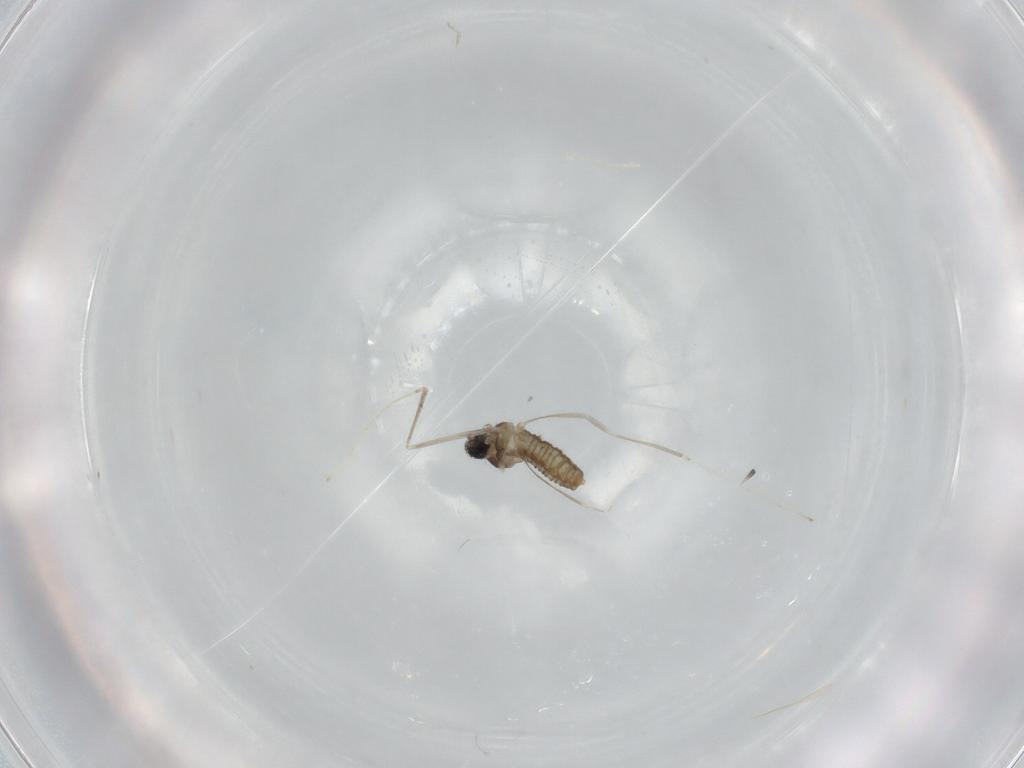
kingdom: Animalia
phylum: Arthropoda
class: Insecta
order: Diptera
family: Cecidomyiidae
